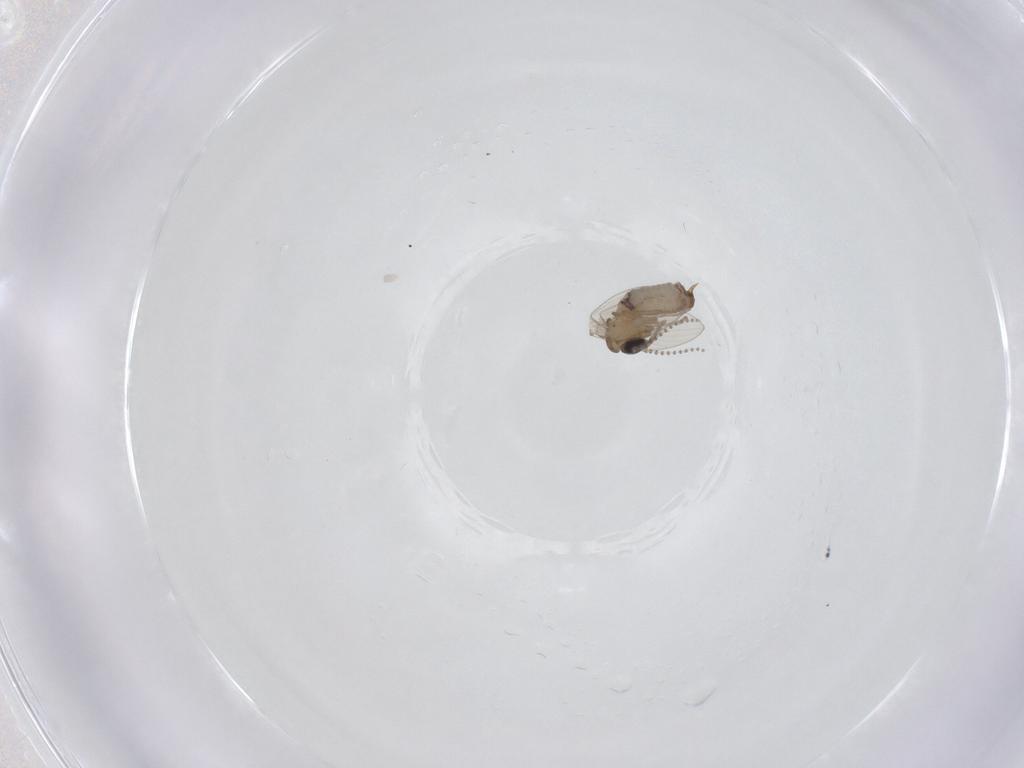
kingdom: Animalia
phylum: Arthropoda
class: Insecta
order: Diptera
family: Psychodidae
